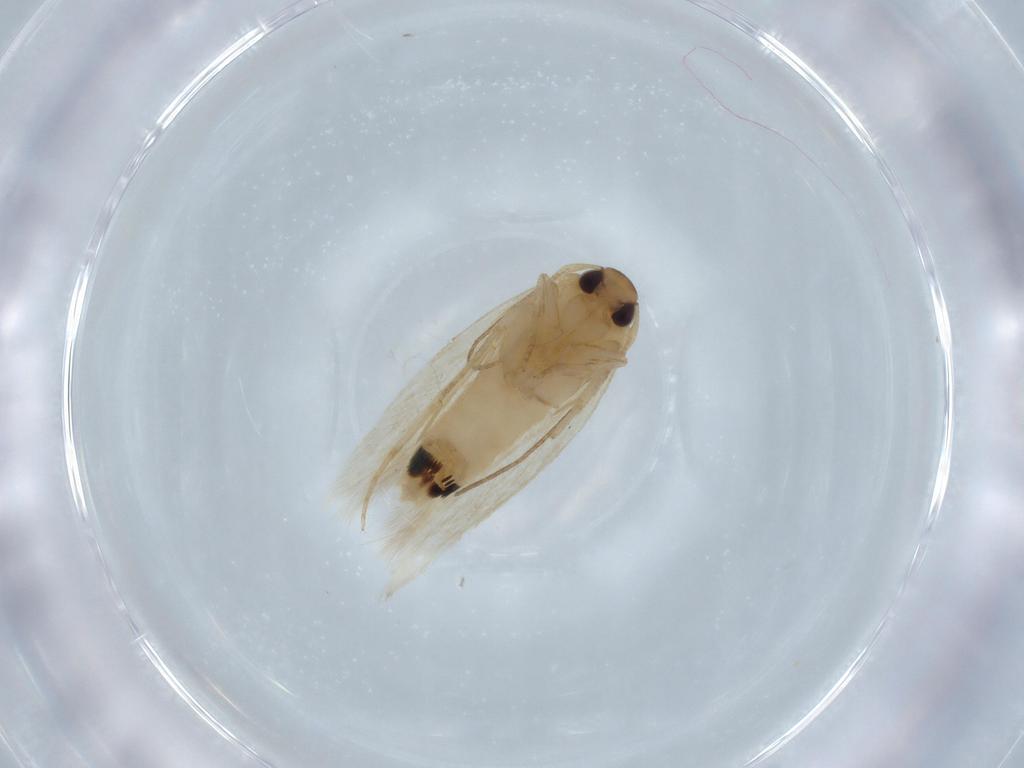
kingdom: Animalia
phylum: Arthropoda
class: Insecta
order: Lepidoptera
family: Cosmopterigidae
